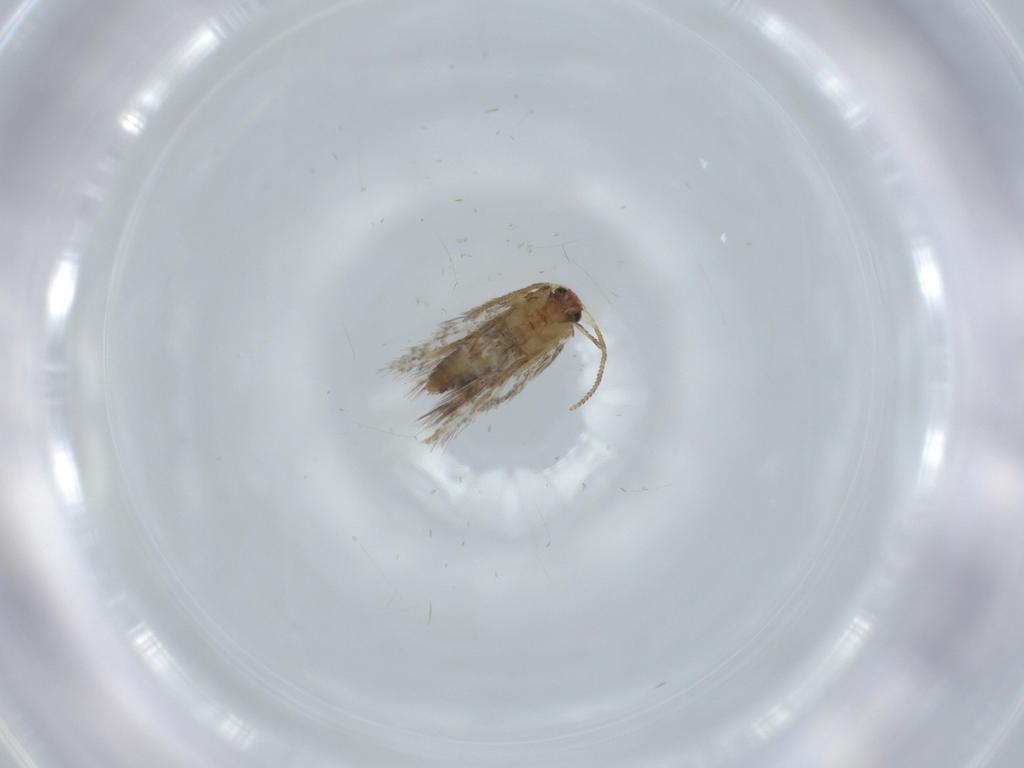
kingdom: Animalia
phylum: Arthropoda
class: Insecta
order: Lepidoptera
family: Nepticulidae
